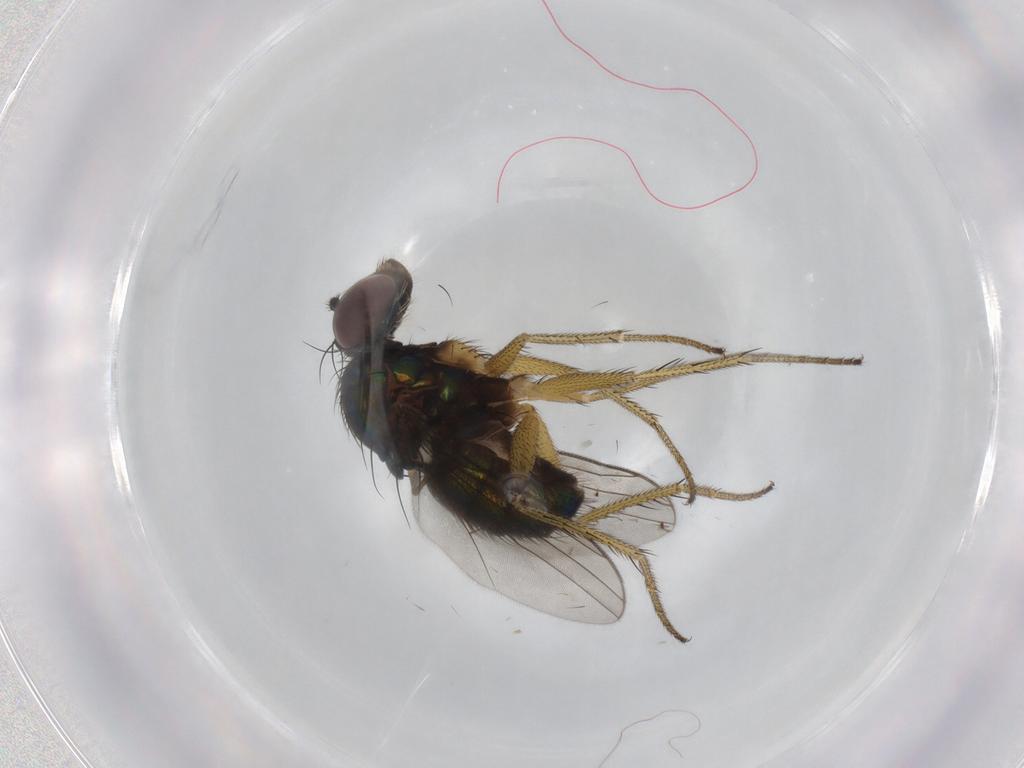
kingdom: Animalia
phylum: Arthropoda
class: Insecta
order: Diptera
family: Dolichopodidae
